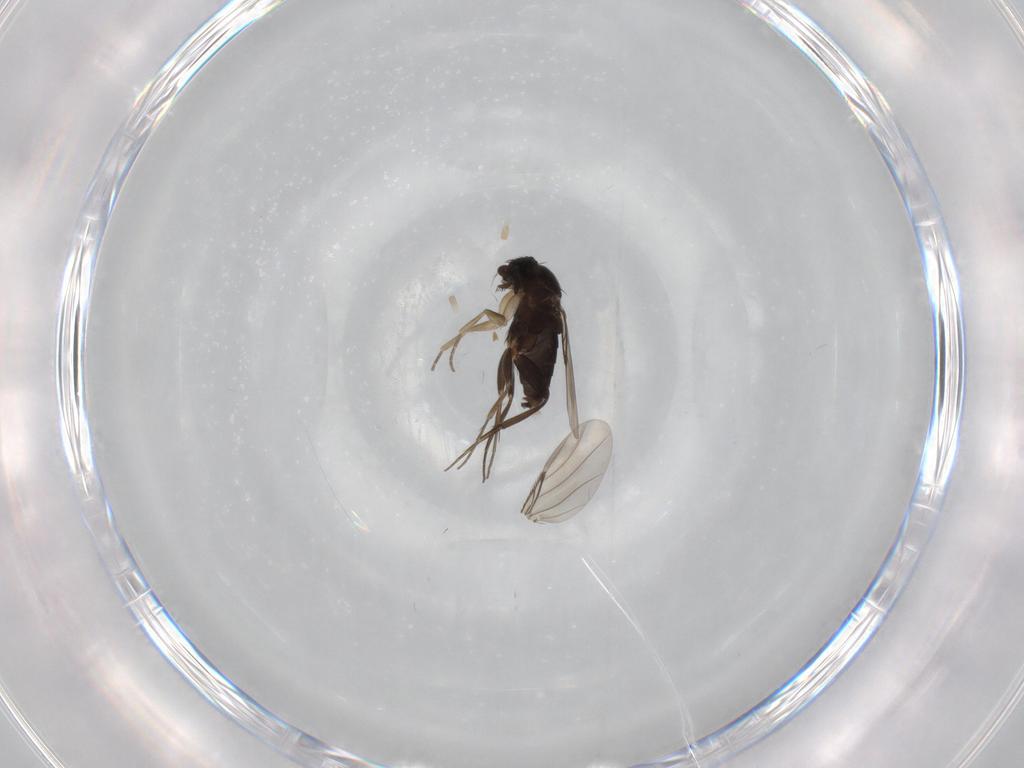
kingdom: Animalia
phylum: Arthropoda
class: Insecta
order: Diptera
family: Phoridae
